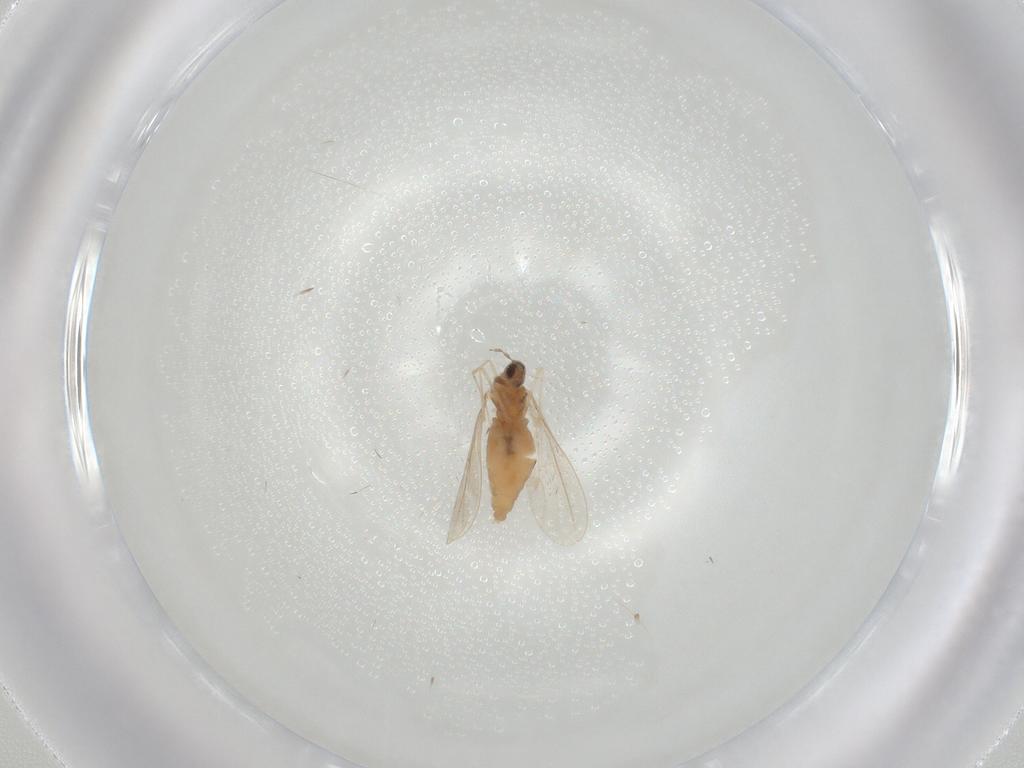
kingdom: Animalia
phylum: Arthropoda
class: Insecta
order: Diptera
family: Cecidomyiidae
